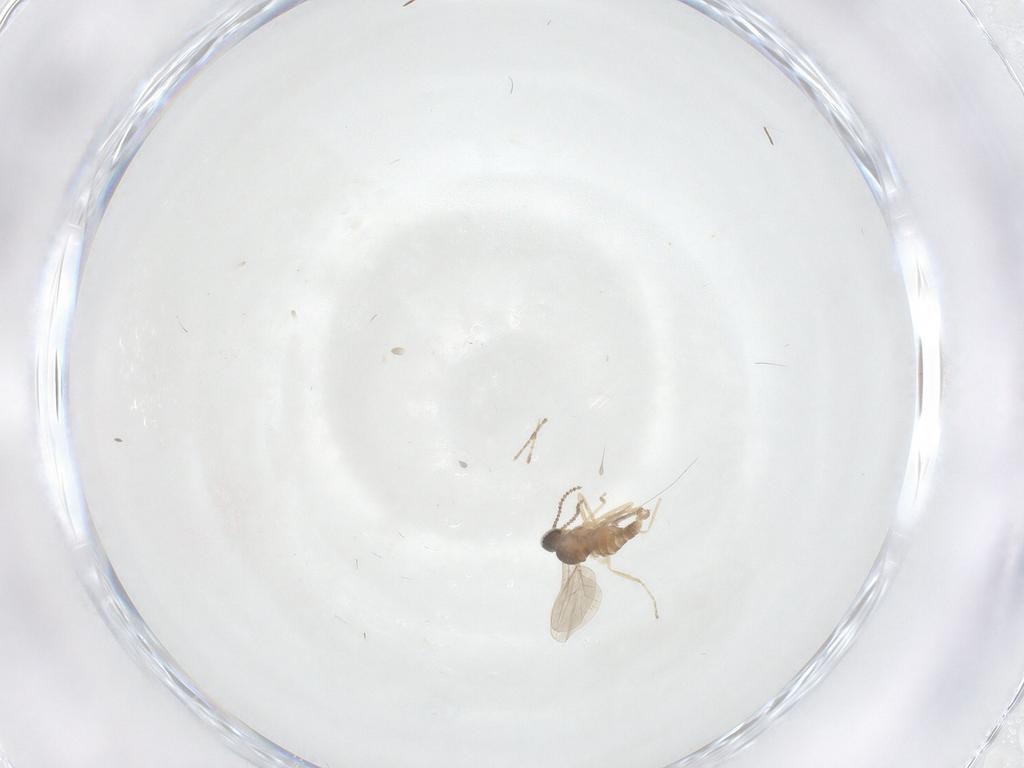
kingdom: Animalia
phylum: Arthropoda
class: Insecta
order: Diptera
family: Cecidomyiidae
